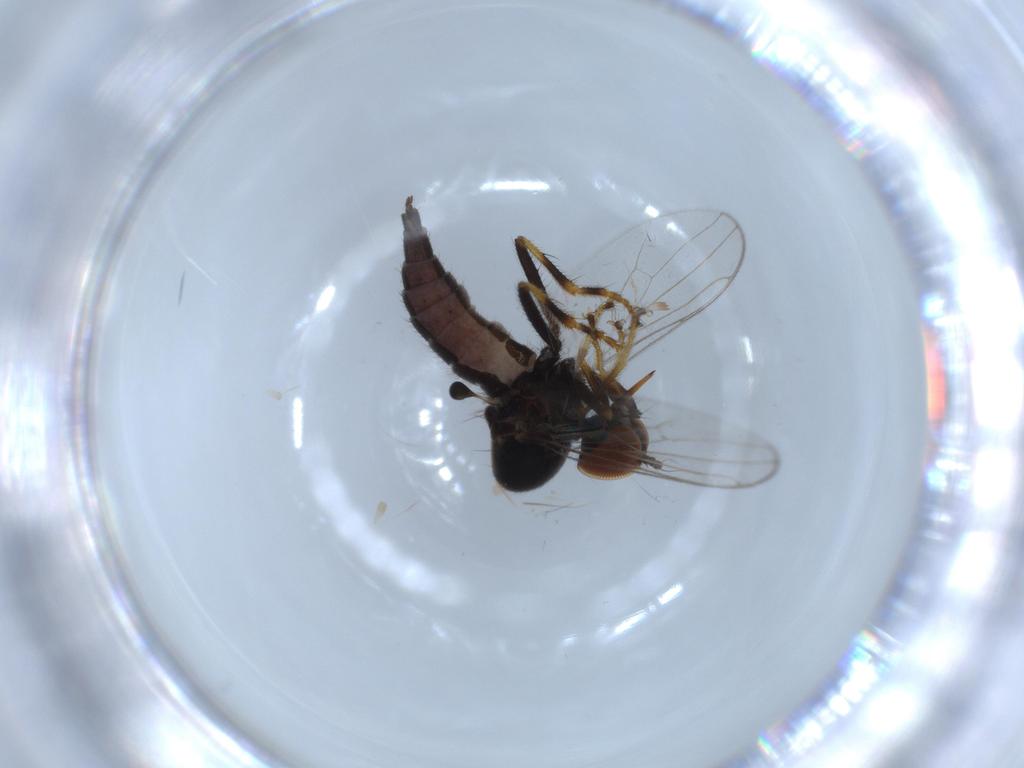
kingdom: Animalia
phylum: Arthropoda
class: Insecta
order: Diptera
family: Hybotidae
